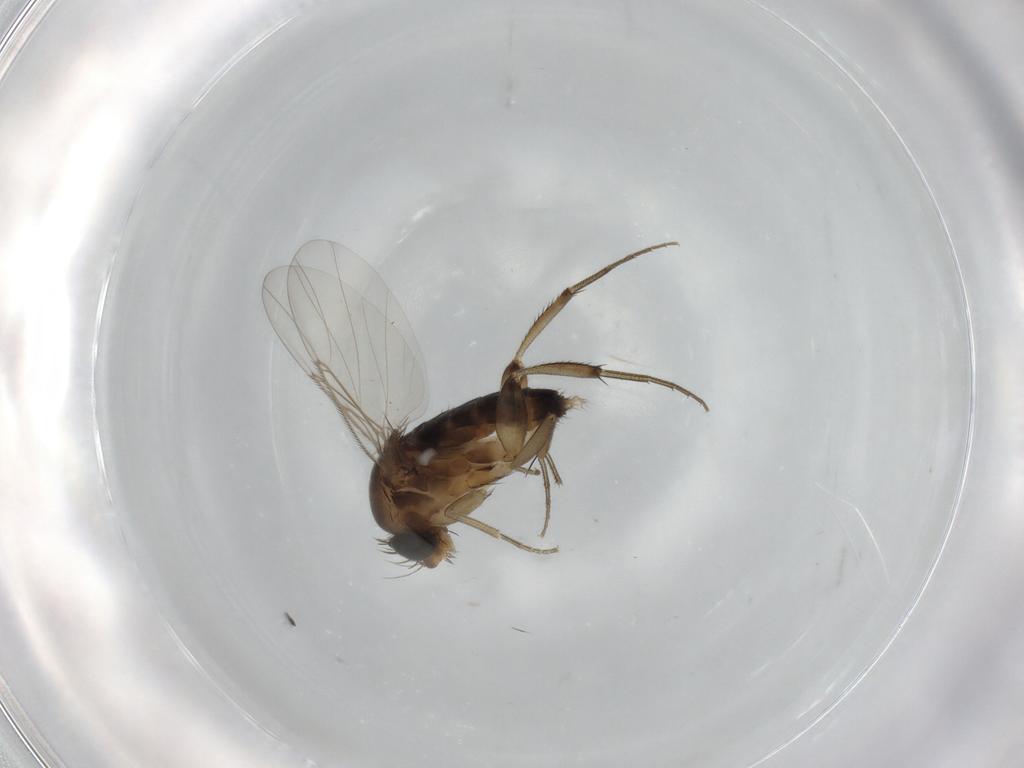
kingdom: Animalia
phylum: Arthropoda
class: Insecta
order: Diptera
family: Phoridae
